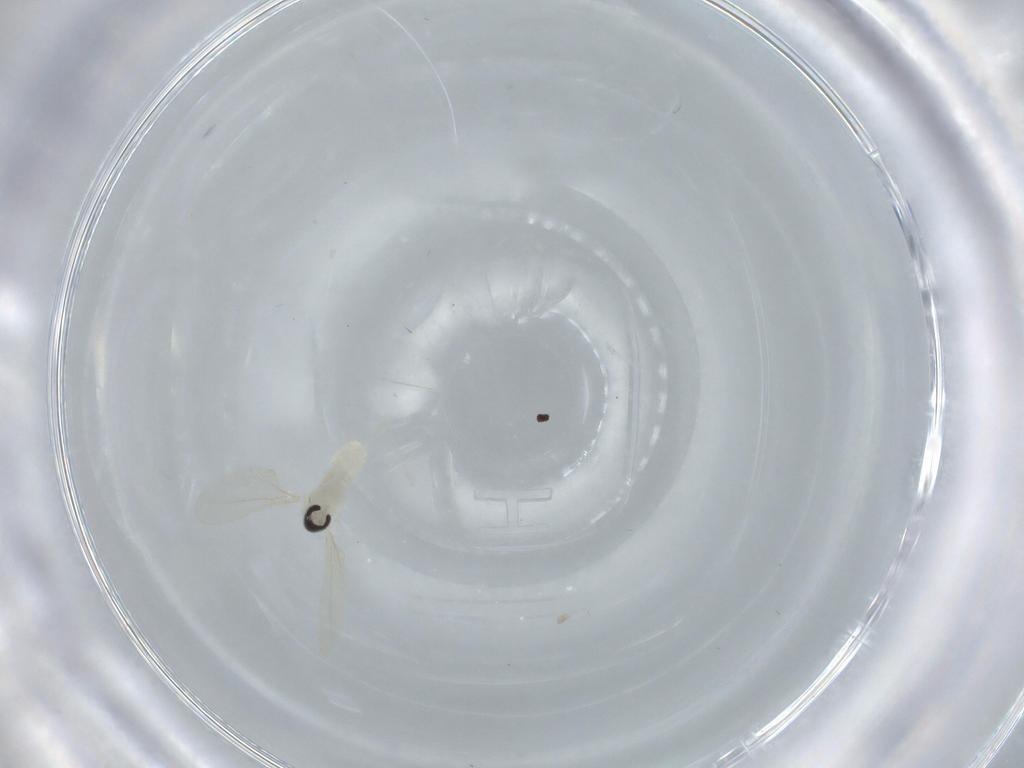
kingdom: Animalia
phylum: Arthropoda
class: Insecta
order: Diptera
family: Cecidomyiidae
